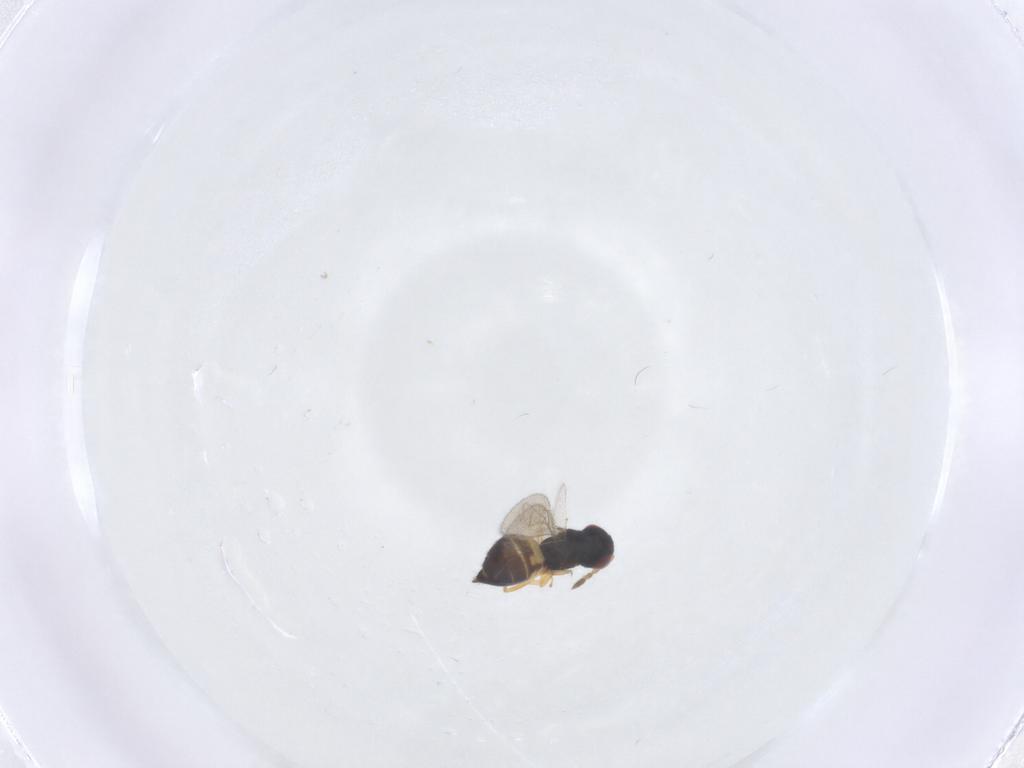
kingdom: Animalia
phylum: Arthropoda
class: Insecta
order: Hymenoptera
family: Eulophidae
